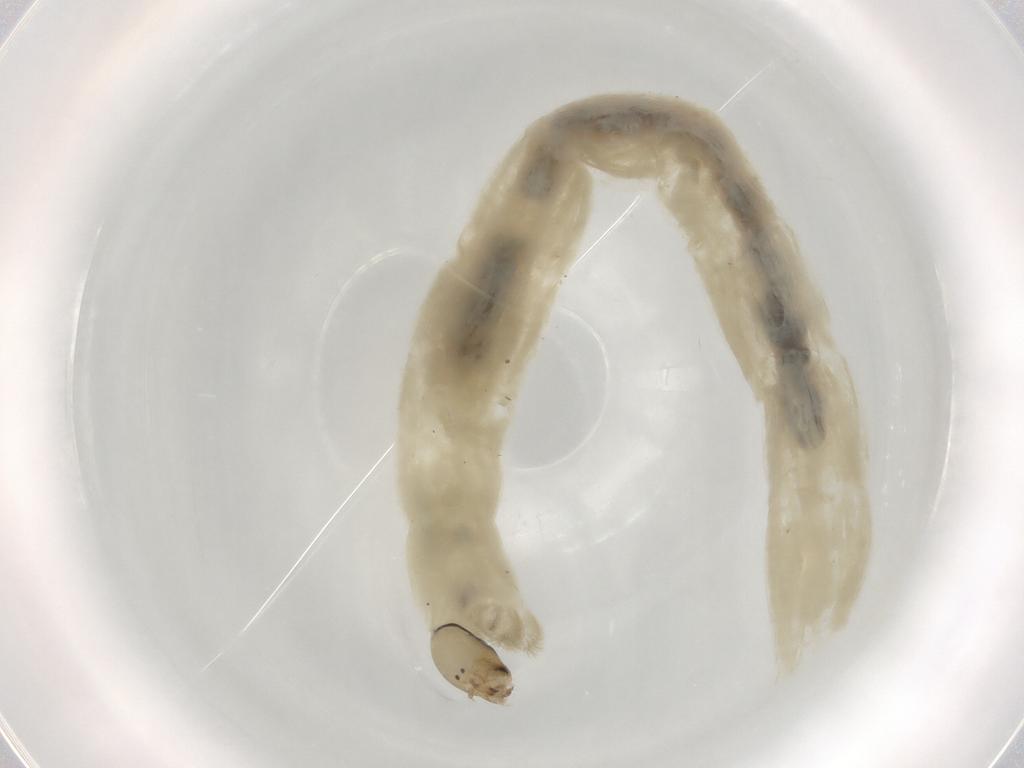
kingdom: Animalia
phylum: Arthropoda
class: Insecta
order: Diptera
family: Chironomidae
